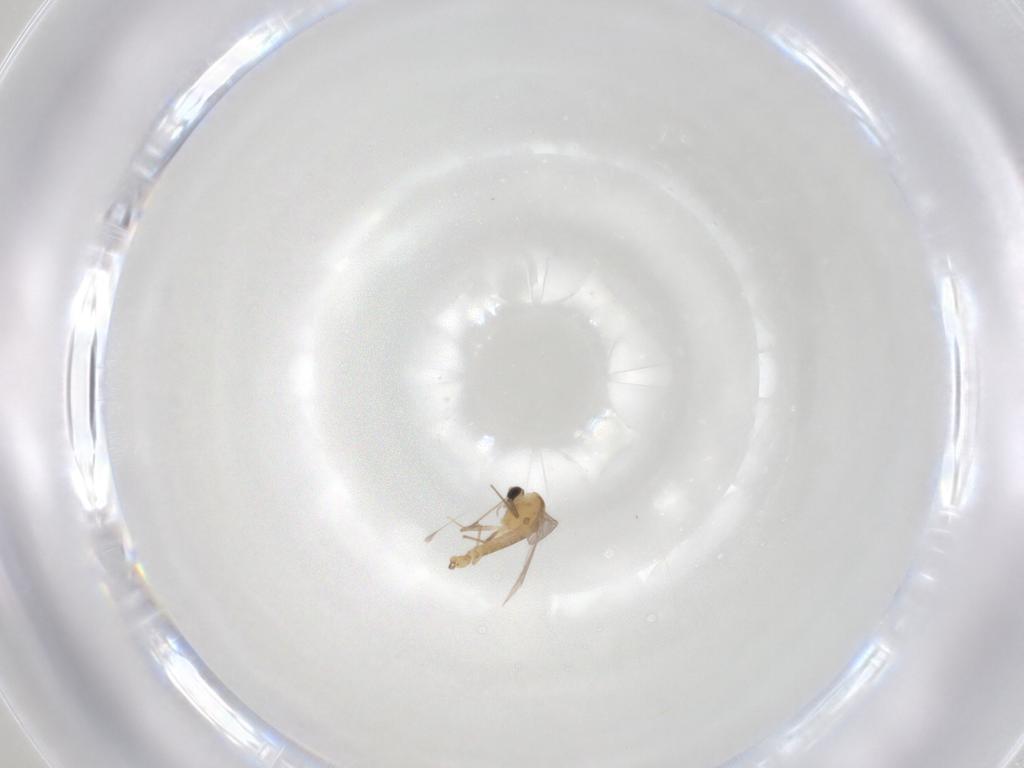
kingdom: Animalia
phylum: Arthropoda
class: Insecta
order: Diptera
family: Chironomidae
